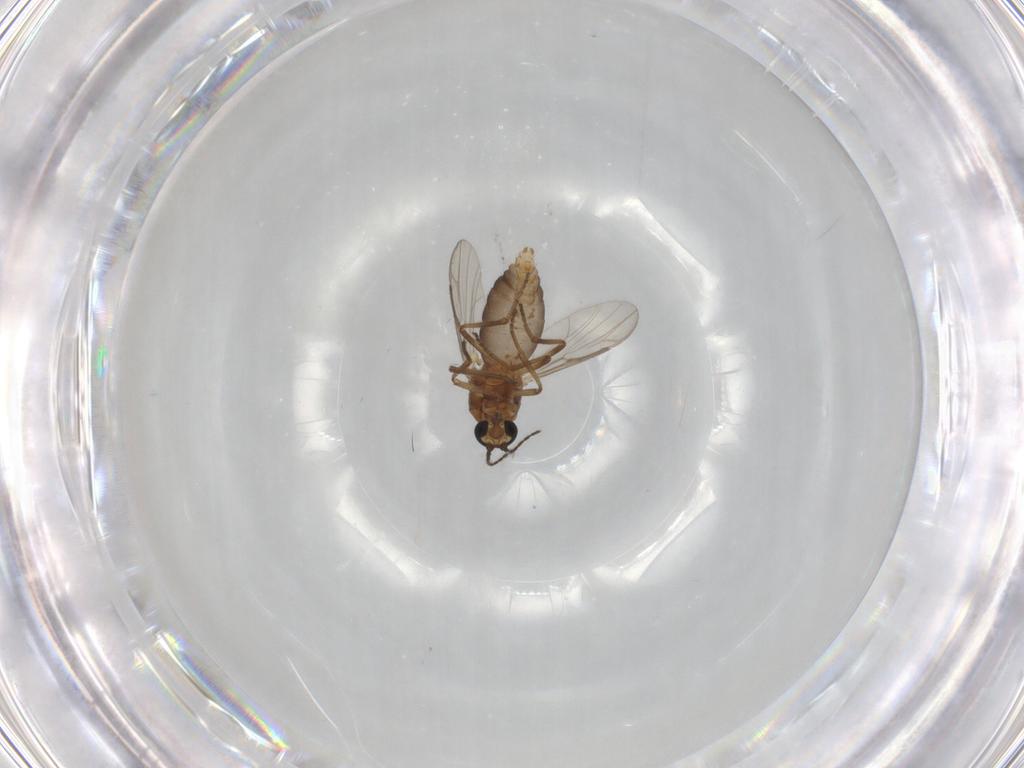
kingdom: Animalia
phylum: Arthropoda
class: Insecta
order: Diptera
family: Ceratopogonidae
